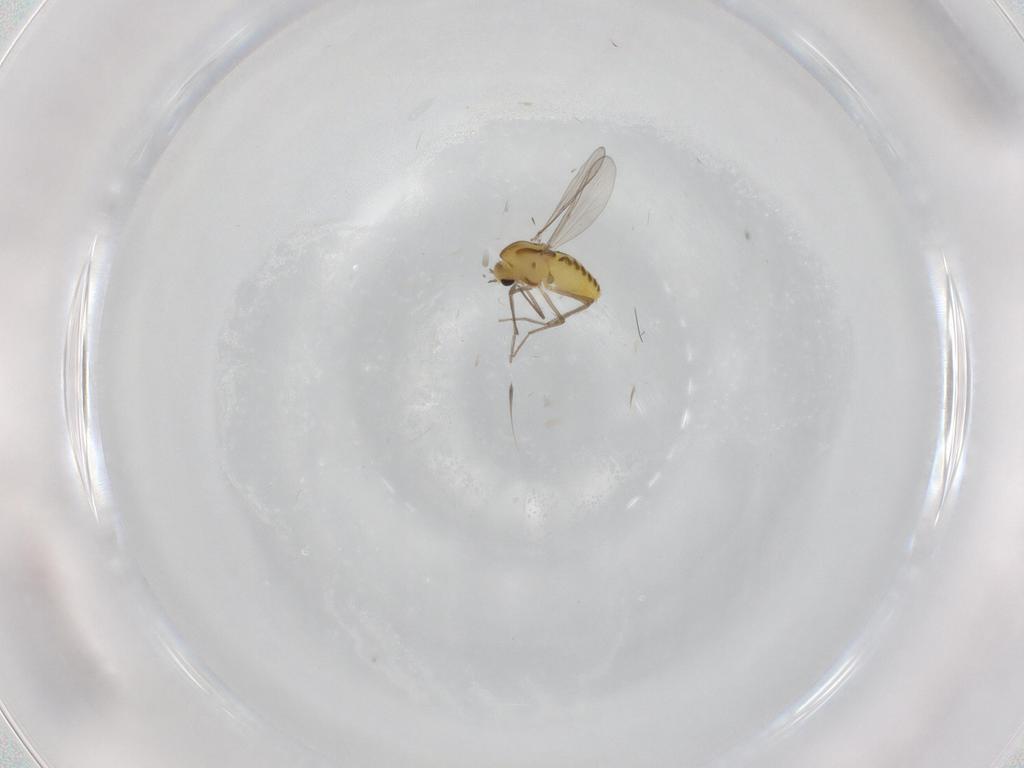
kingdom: Animalia
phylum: Arthropoda
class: Insecta
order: Diptera
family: Chironomidae
